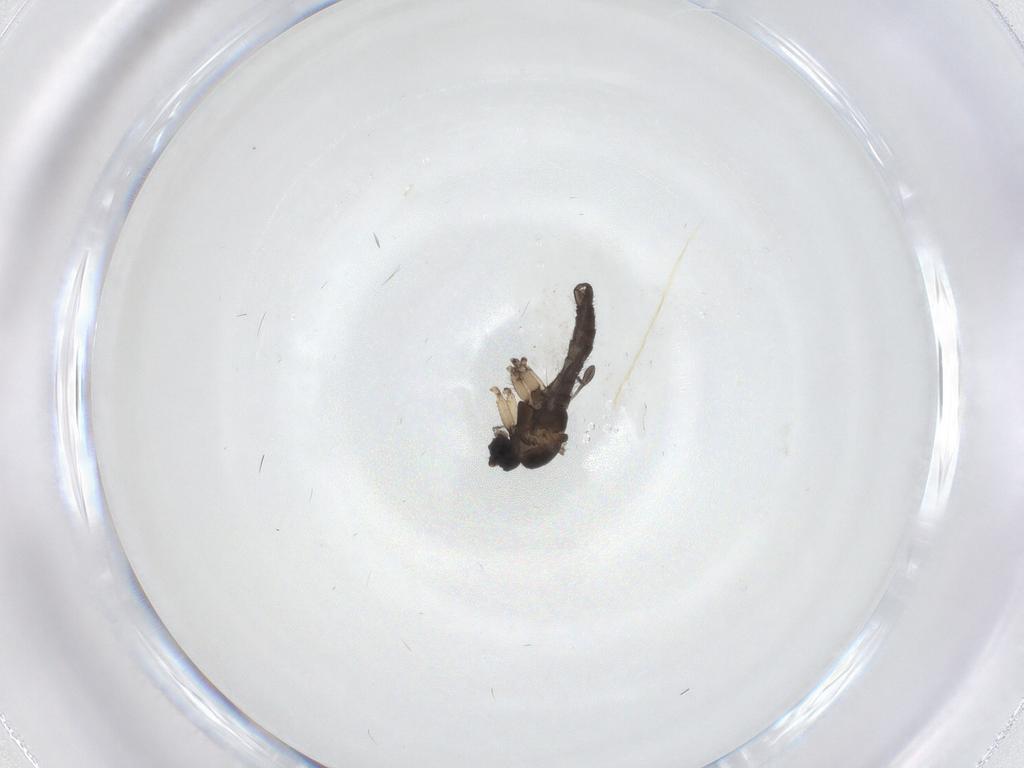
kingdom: Animalia
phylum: Arthropoda
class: Insecta
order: Diptera
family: Sciaridae
